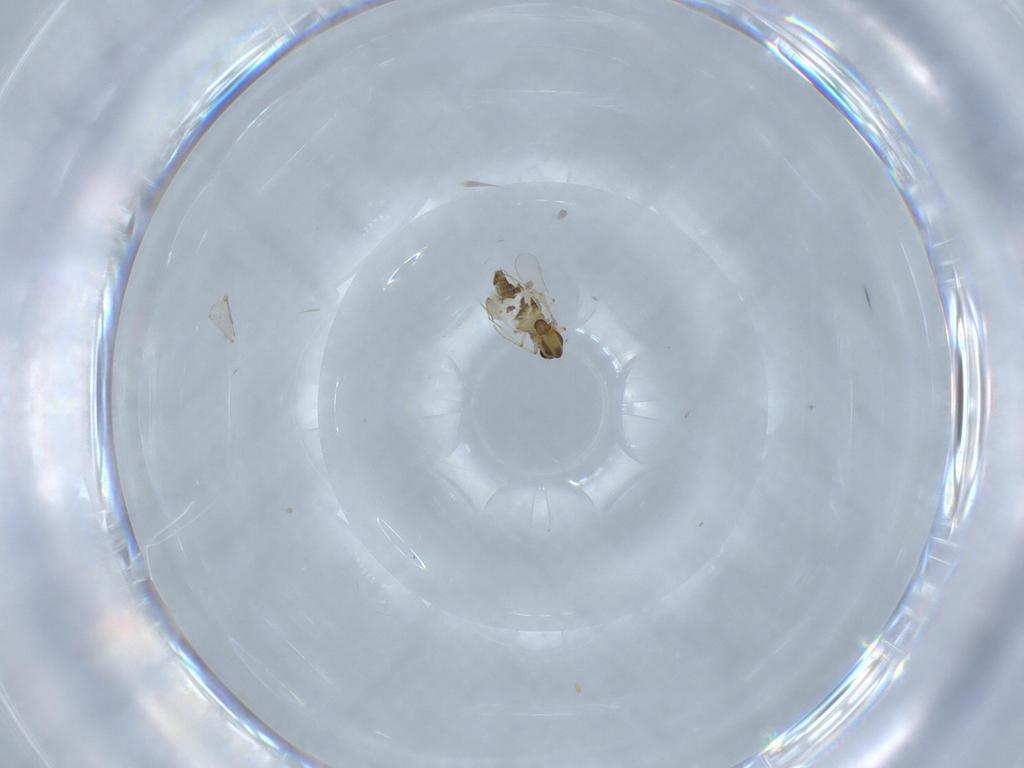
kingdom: Animalia
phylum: Arthropoda
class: Insecta
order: Diptera
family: Chironomidae
